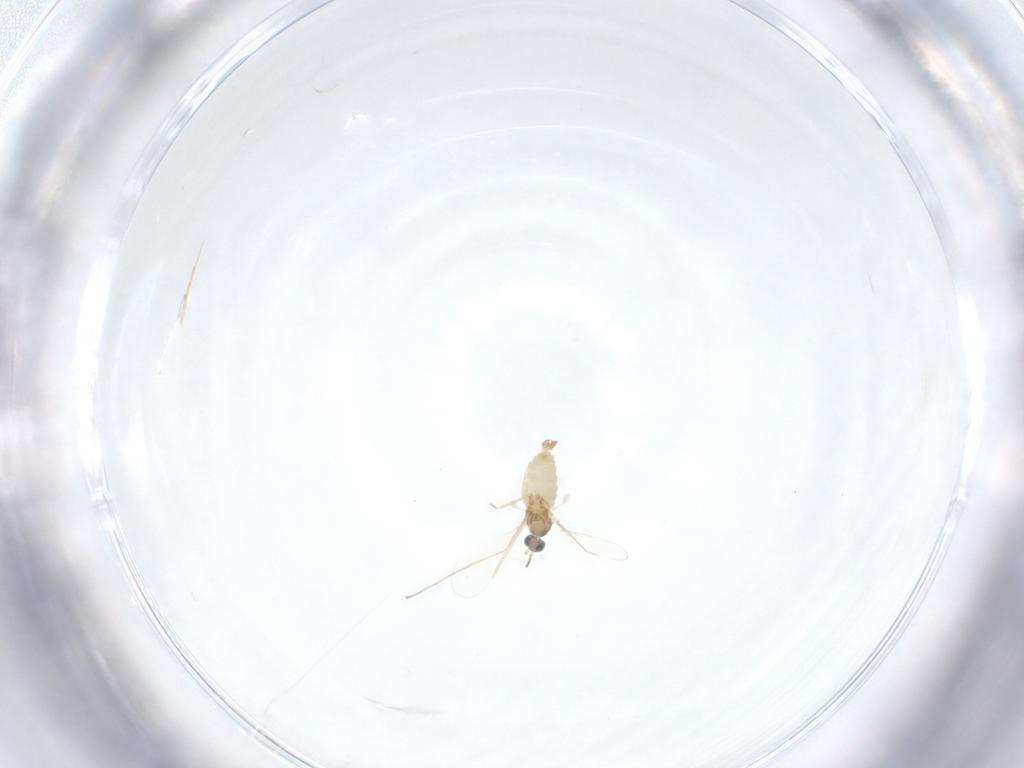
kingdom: Animalia
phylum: Arthropoda
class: Insecta
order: Diptera
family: Cecidomyiidae
